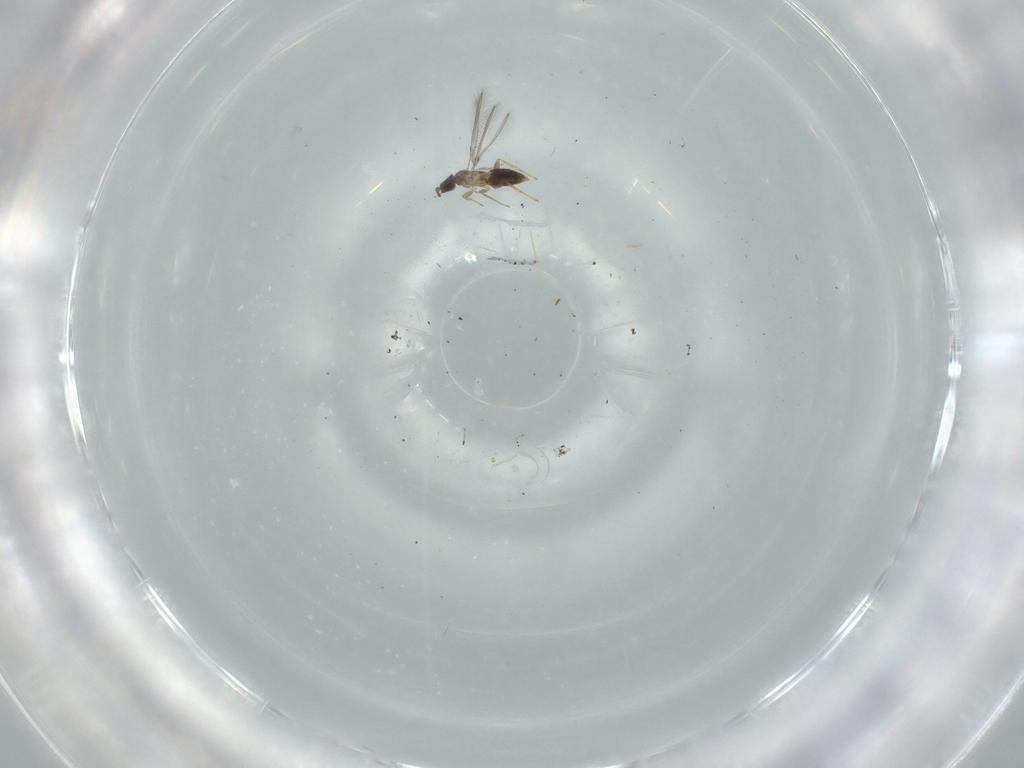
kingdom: Animalia
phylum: Arthropoda
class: Insecta
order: Hymenoptera
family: Mymaridae
